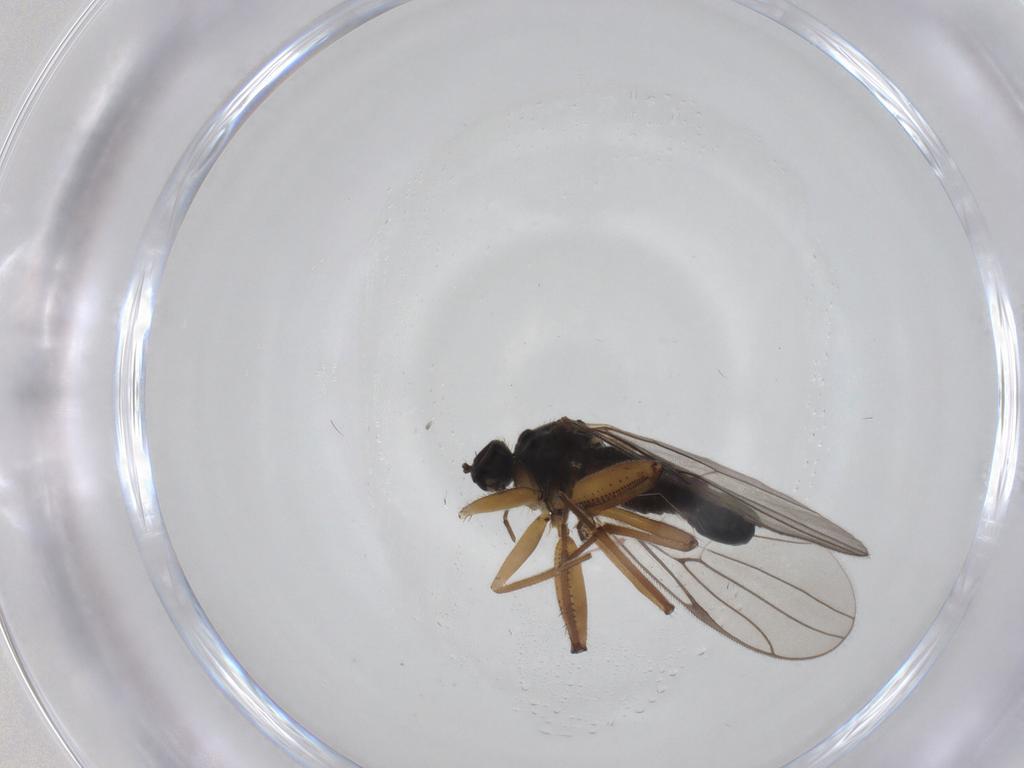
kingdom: Animalia
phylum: Arthropoda
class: Insecta
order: Diptera
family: Hybotidae
